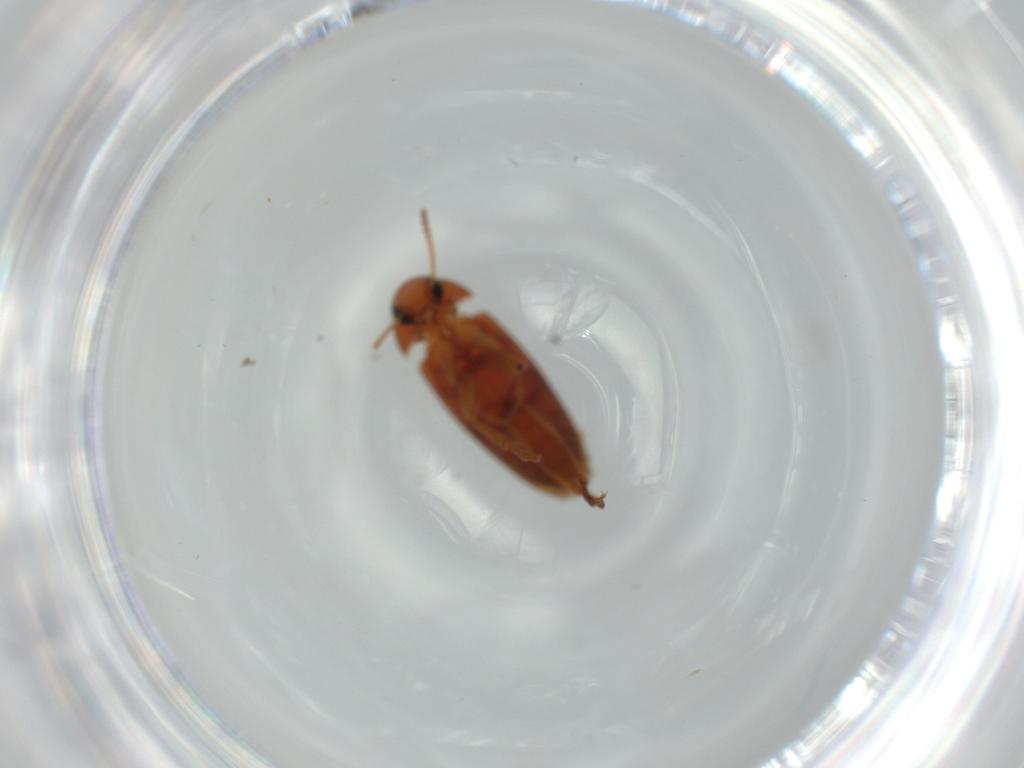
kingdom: Animalia
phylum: Arthropoda
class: Insecta
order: Coleoptera
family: Scraptiidae
